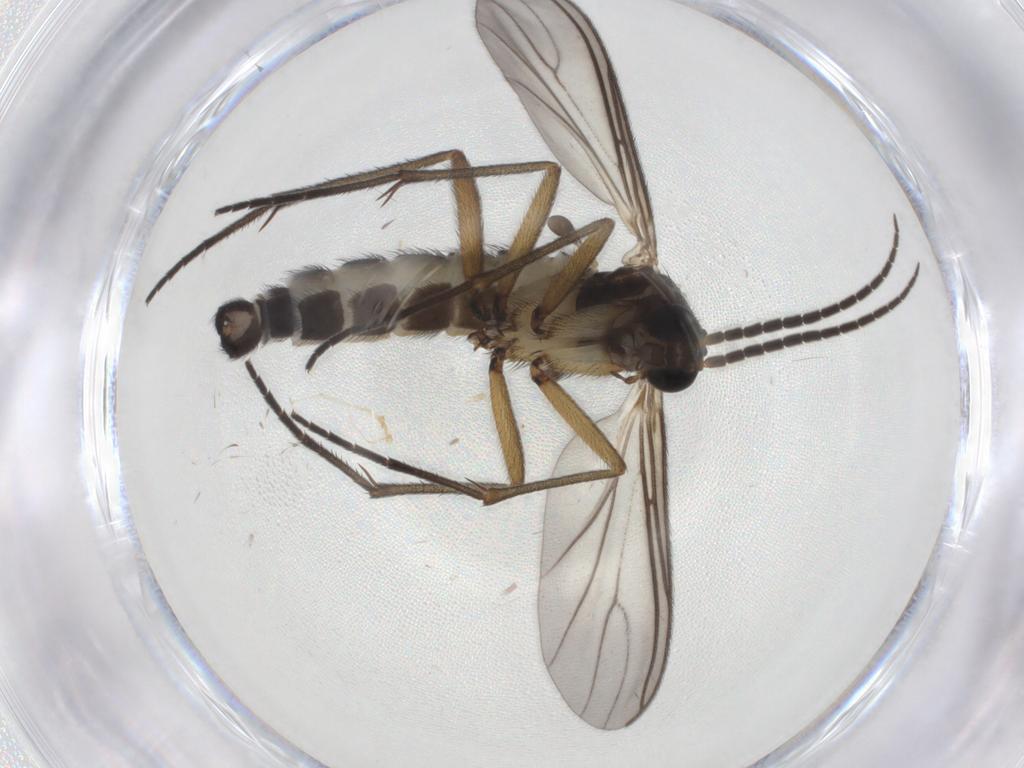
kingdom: Animalia
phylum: Arthropoda
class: Insecta
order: Diptera
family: Sciaridae
